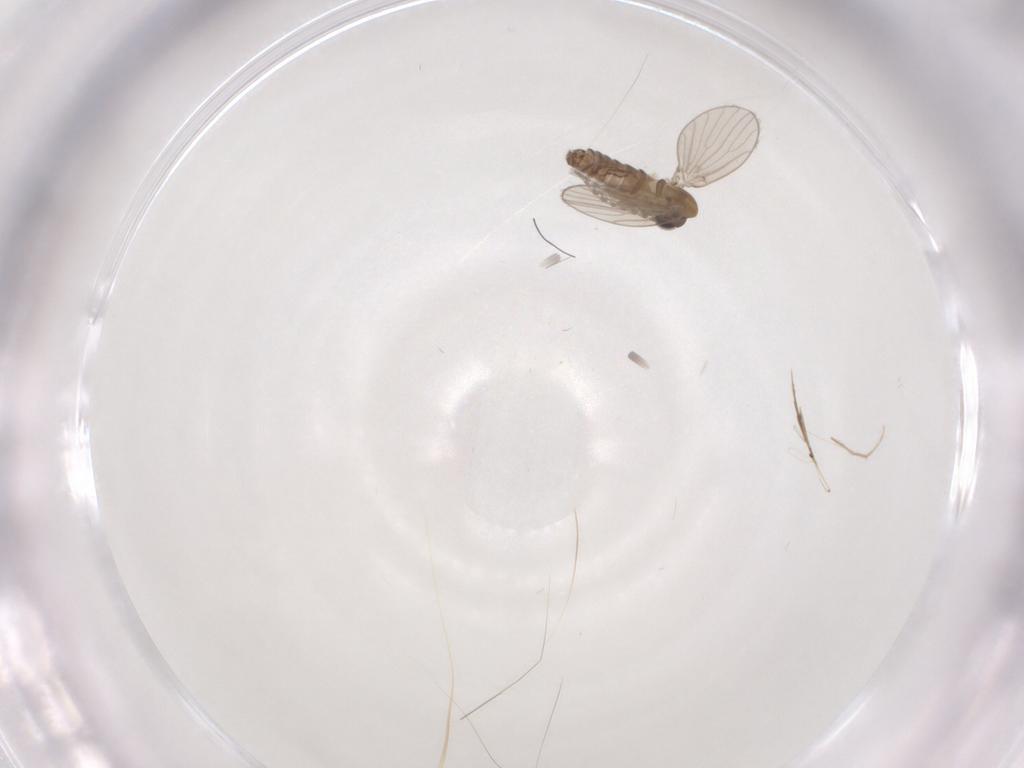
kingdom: Animalia
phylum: Arthropoda
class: Insecta
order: Diptera
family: Chironomidae
